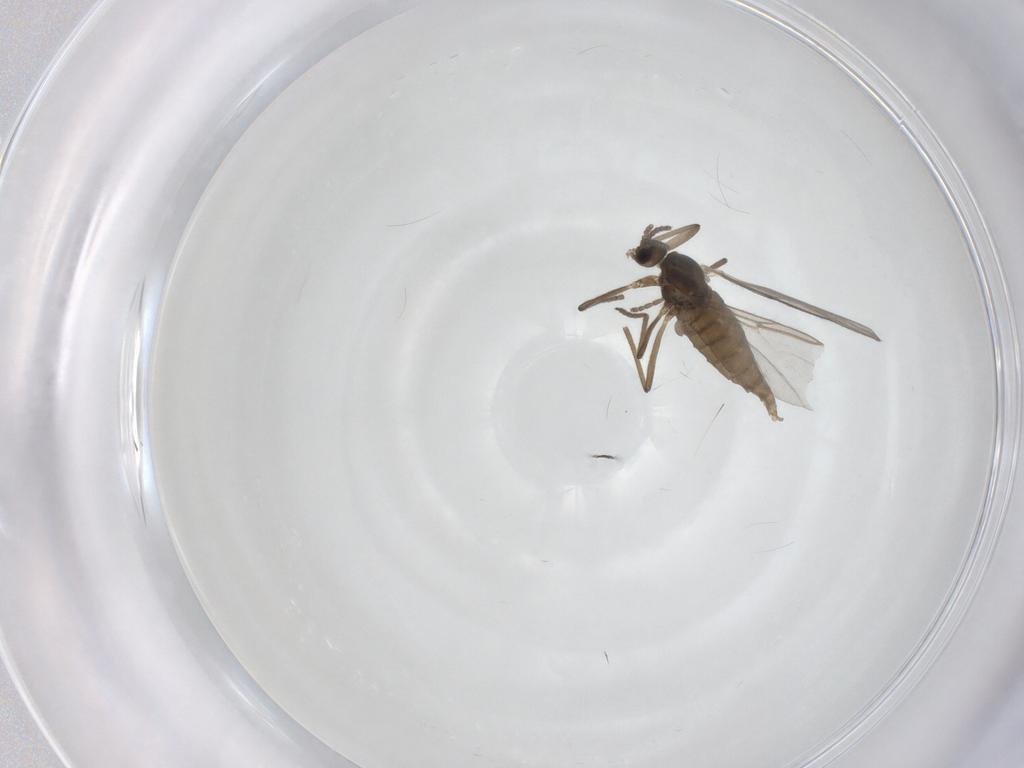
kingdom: Animalia
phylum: Arthropoda
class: Insecta
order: Diptera
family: Cecidomyiidae
